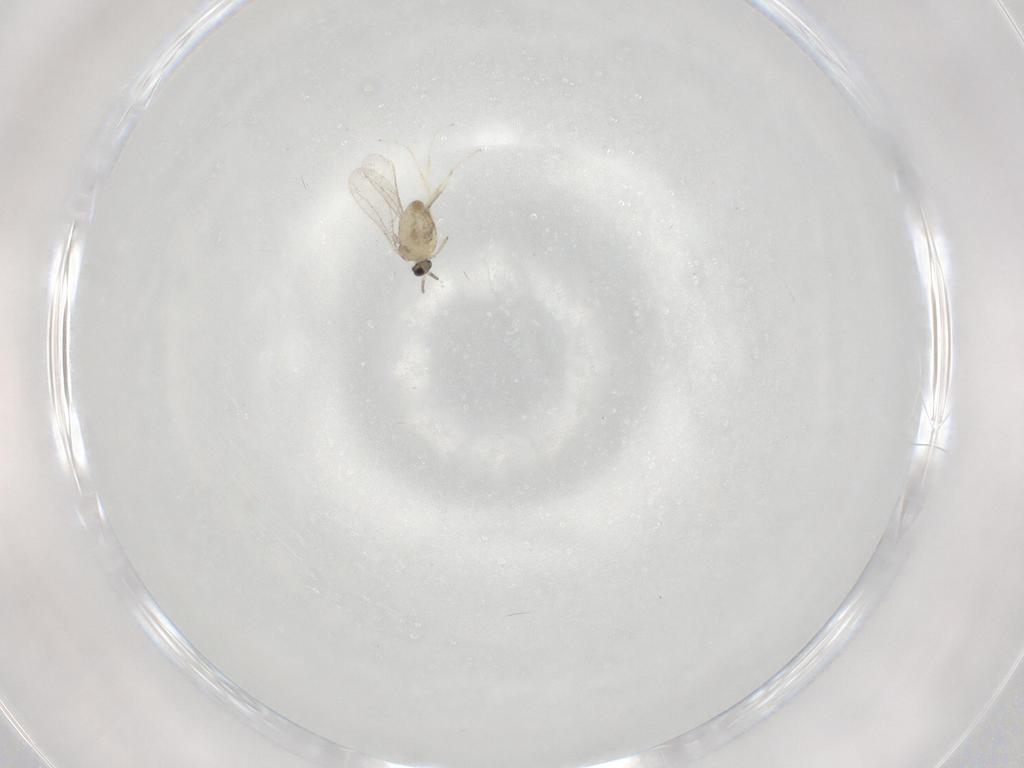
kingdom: Animalia
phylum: Arthropoda
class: Insecta
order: Diptera
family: Cecidomyiidae
